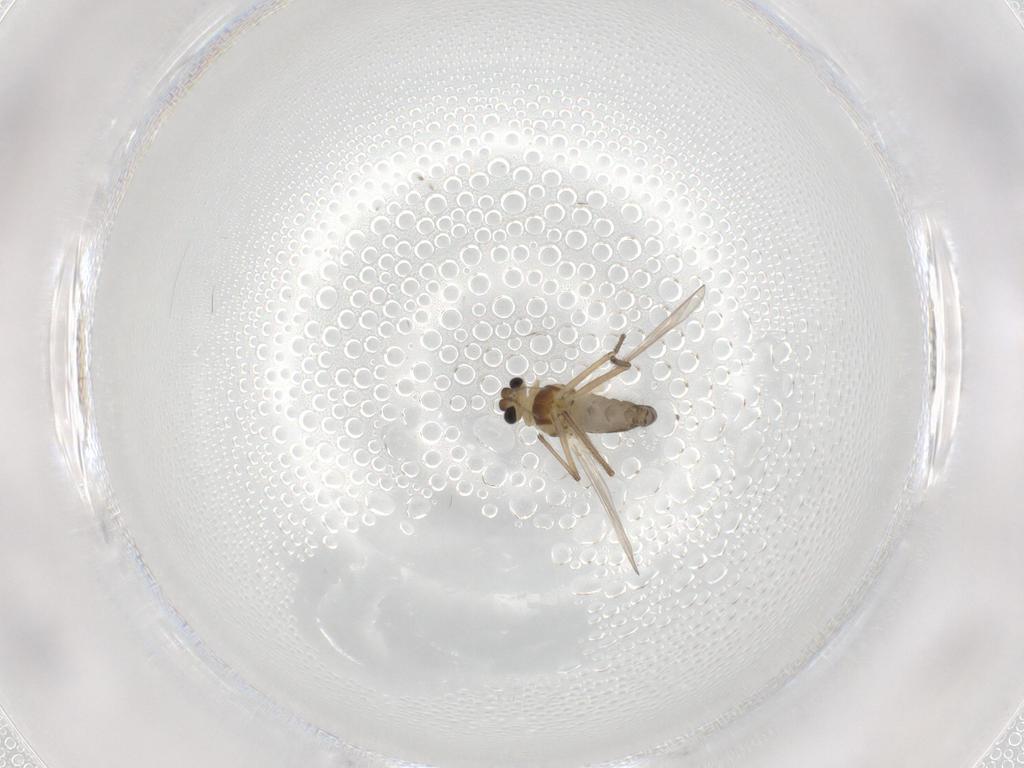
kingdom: Animalia
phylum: Arthropoda
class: Insecta
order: Diptera
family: Chironomidae
